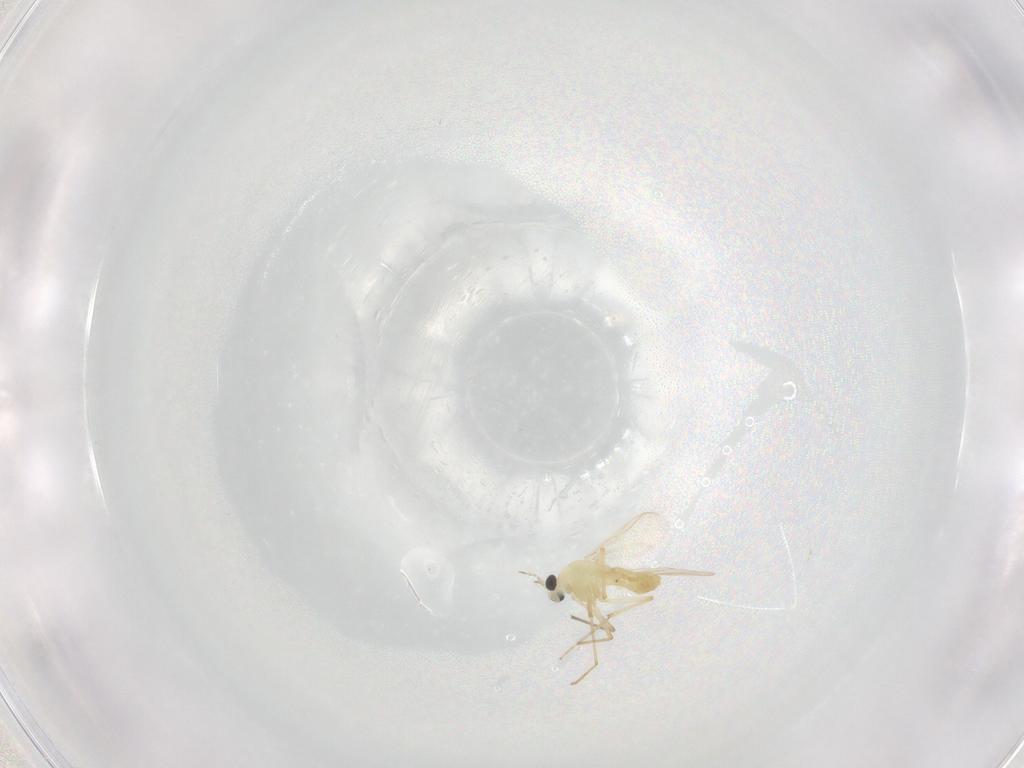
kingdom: Animalia
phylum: Arthropoda
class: Insecta
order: Diptera
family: Chironomidae
